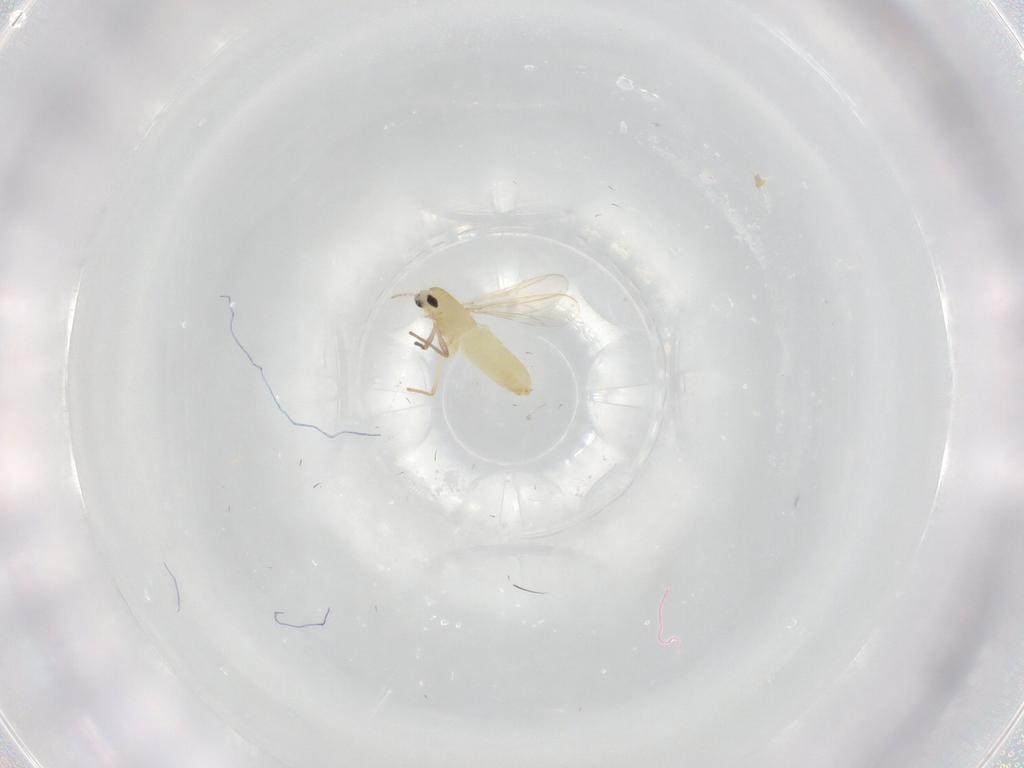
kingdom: Animalia
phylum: Arthropoda
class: Insecta
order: Diptera
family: Chironomidae
